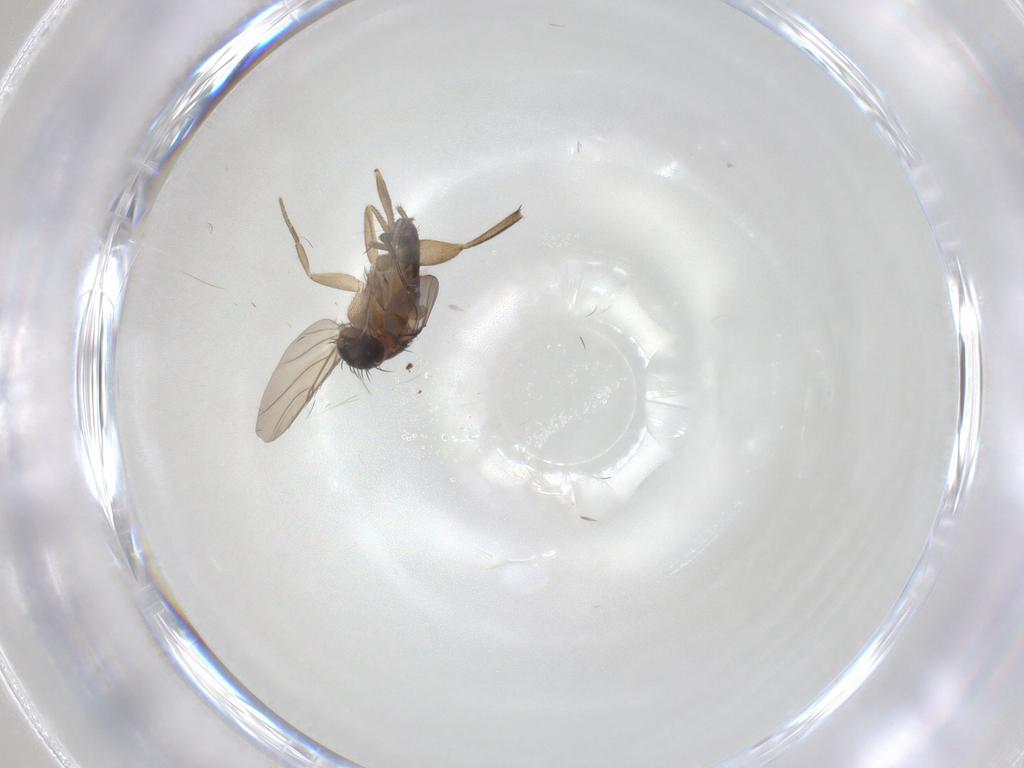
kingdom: Animalia
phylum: Arthropoda
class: Insecta
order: Diptera
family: Phoridae
